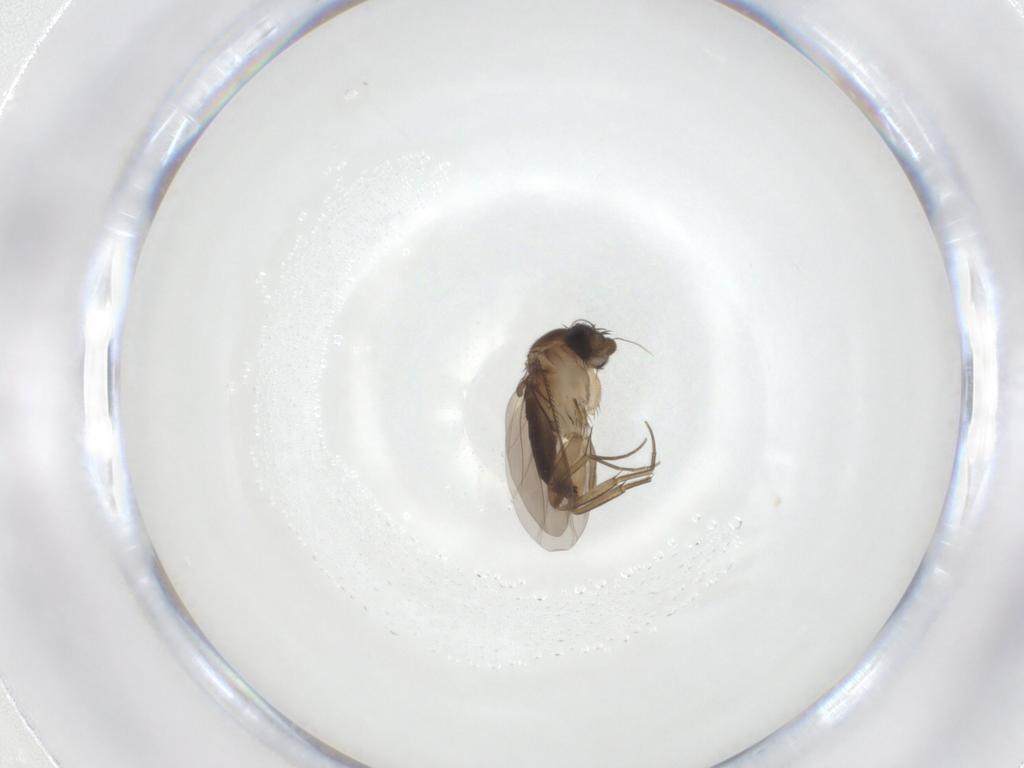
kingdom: Animalia
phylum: Arthropoda
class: Insecta
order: Diptera
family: Phoridae
